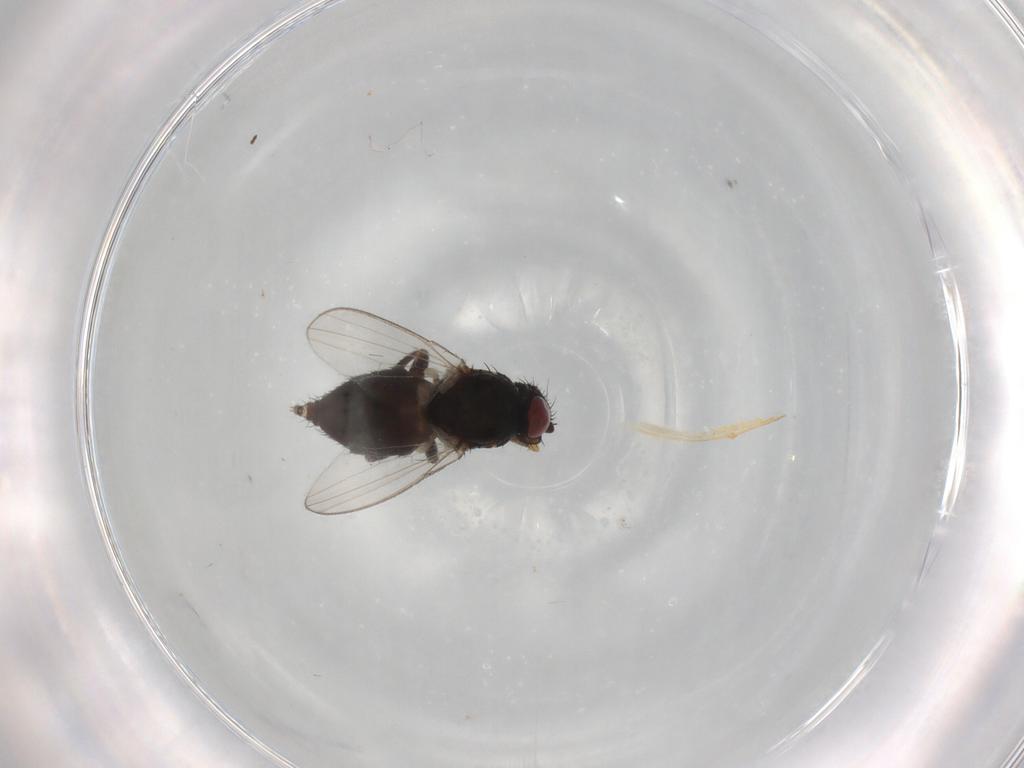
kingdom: Animalia
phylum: Arthropoda
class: Insecta
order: Diptera
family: Milichiidae
